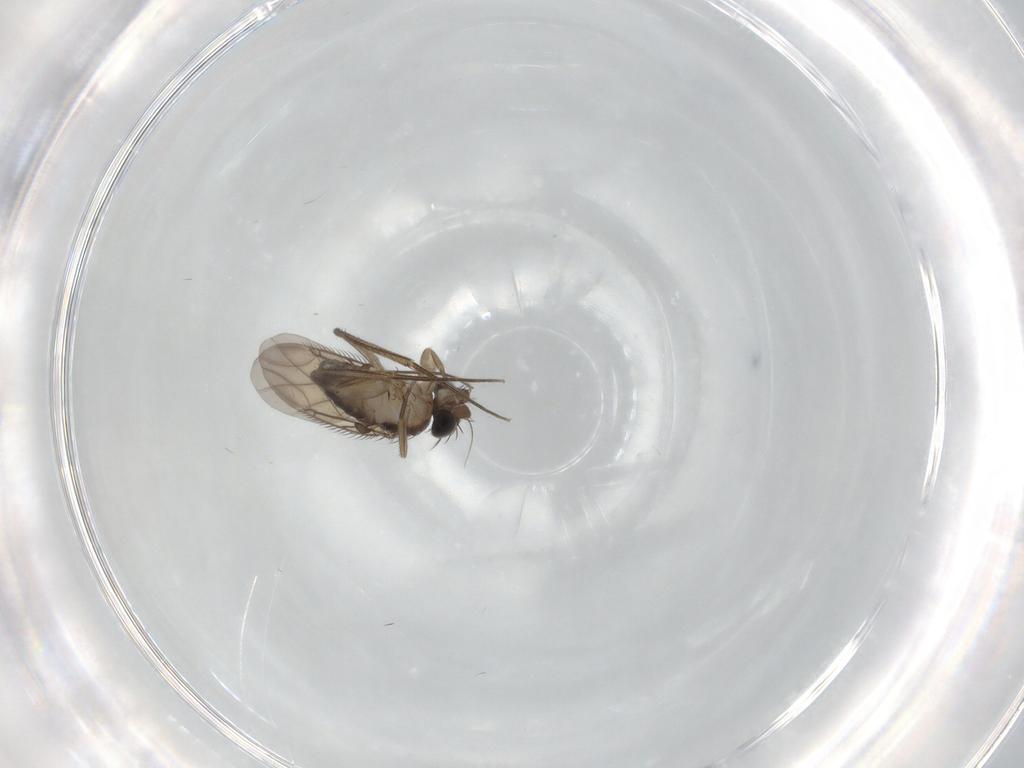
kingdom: Animalia
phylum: Arthropoda
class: Insecta
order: Diptera
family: Phoridae
